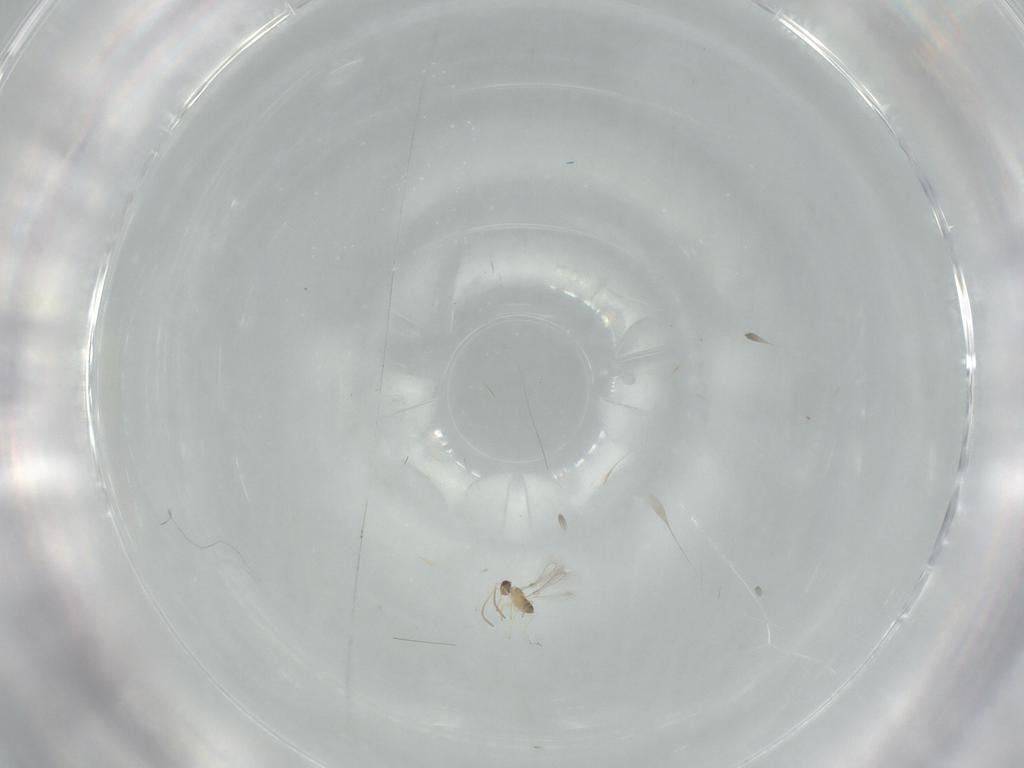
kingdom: Animalia
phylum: Arthropoda
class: Insecta
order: Hymenoptera
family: Mymaridae
